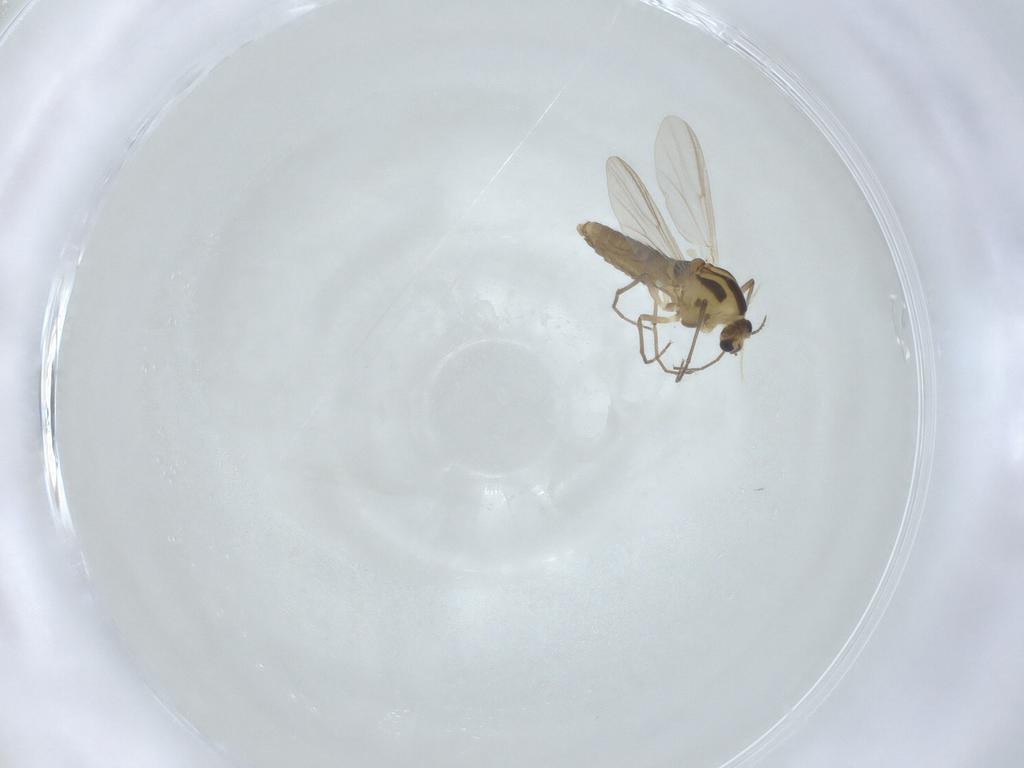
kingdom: Animalia
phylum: Arthropoda
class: Insecta
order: Diptera
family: Chironomidae
